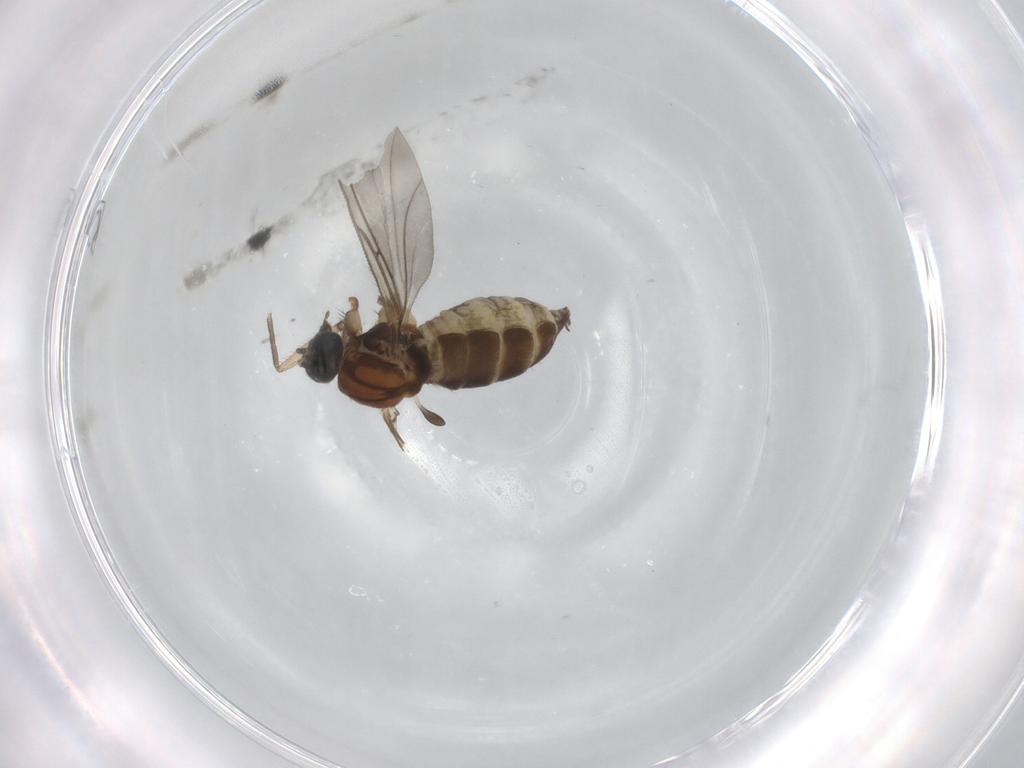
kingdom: Animalia
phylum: Arthropoda
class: Insecta
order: Diptera
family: Sciaridae
